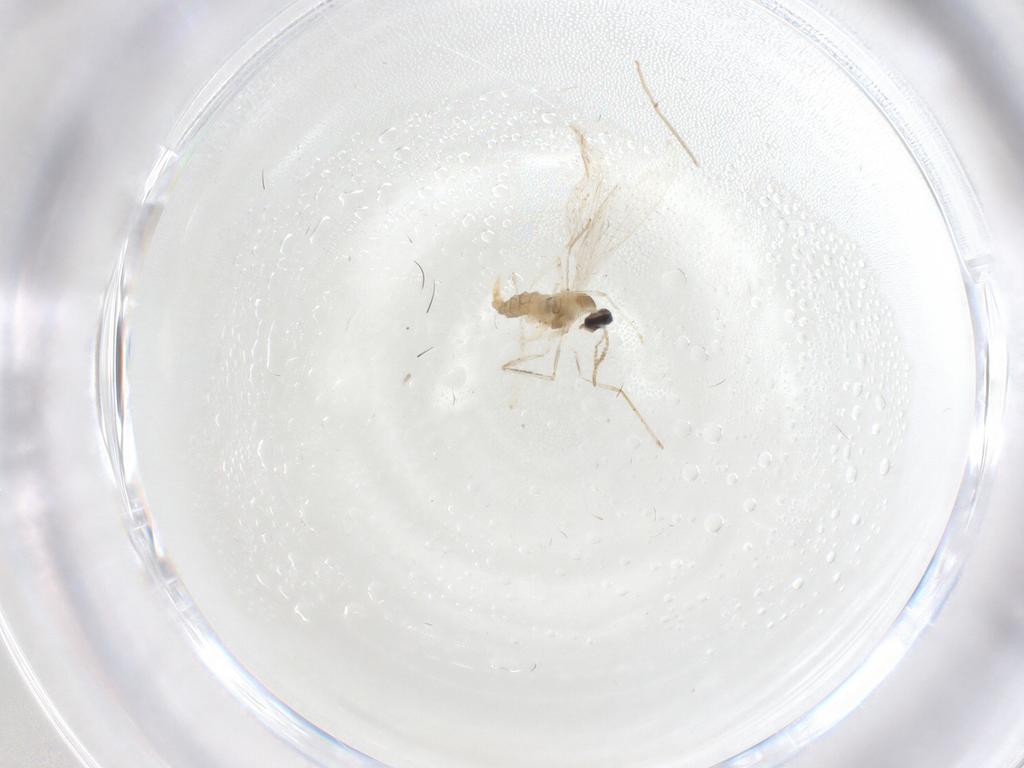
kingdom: Animalia
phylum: Arthropoda
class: Insecta
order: Diptera
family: Cecidomyiidae
